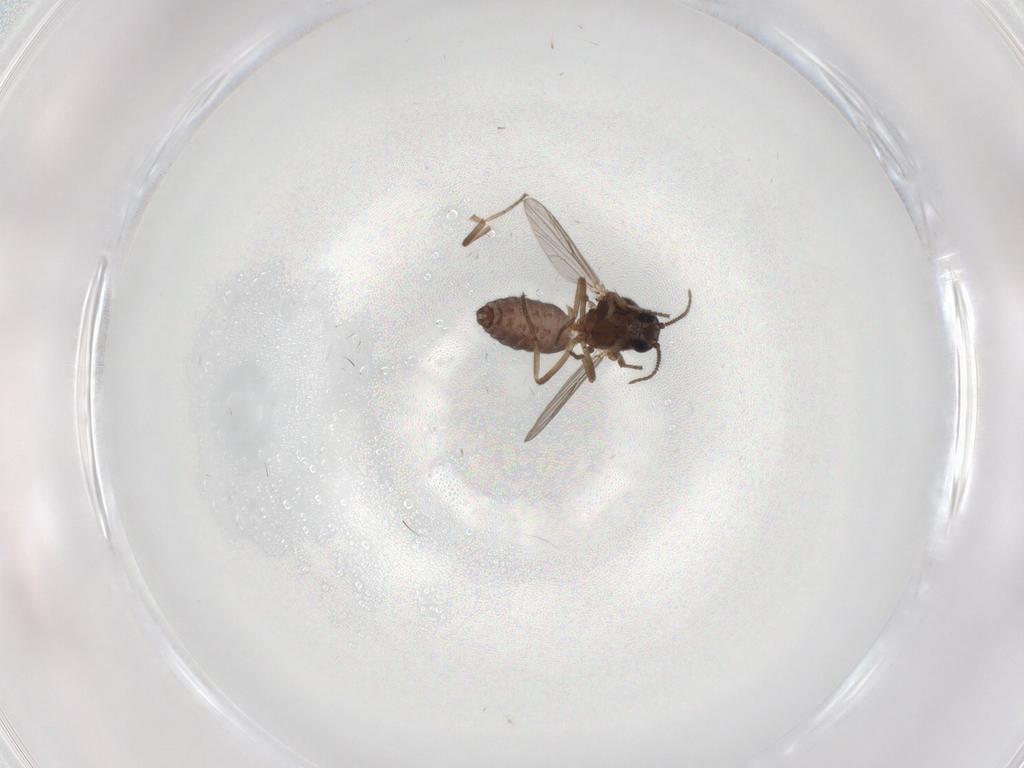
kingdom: Animalia
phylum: Arthropoda
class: Insecta
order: Diptera
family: Ceratopogonidae
